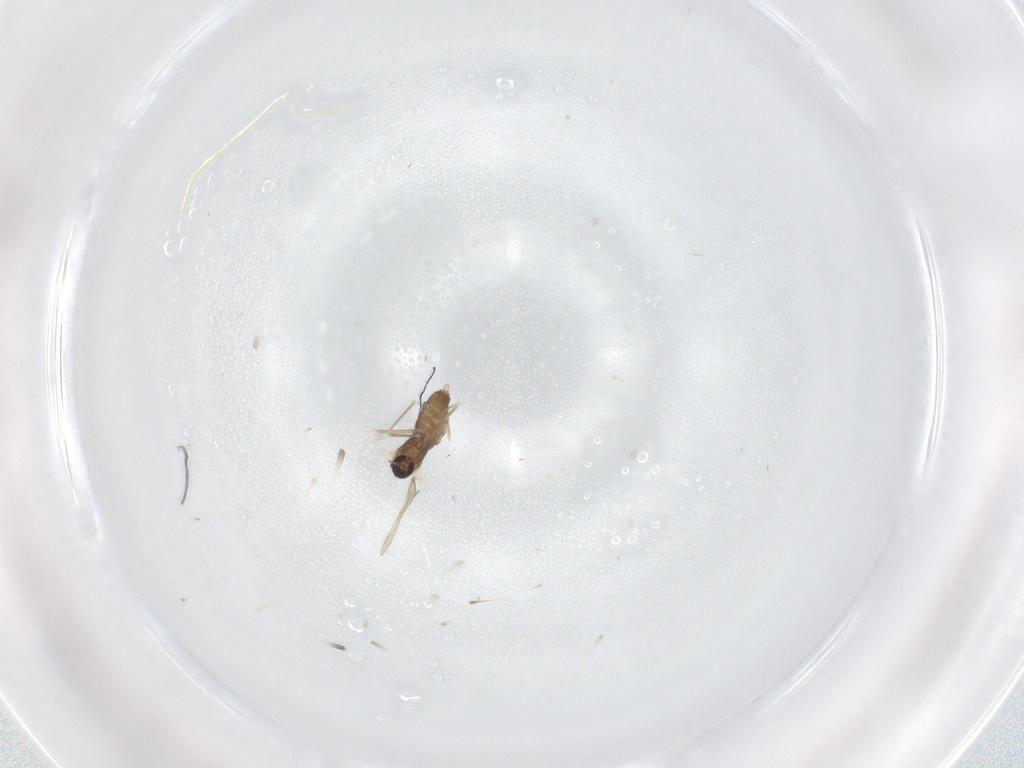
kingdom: Animalia
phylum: Arthropoda
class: Insecta
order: Diptera
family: Cecidomyiidae
